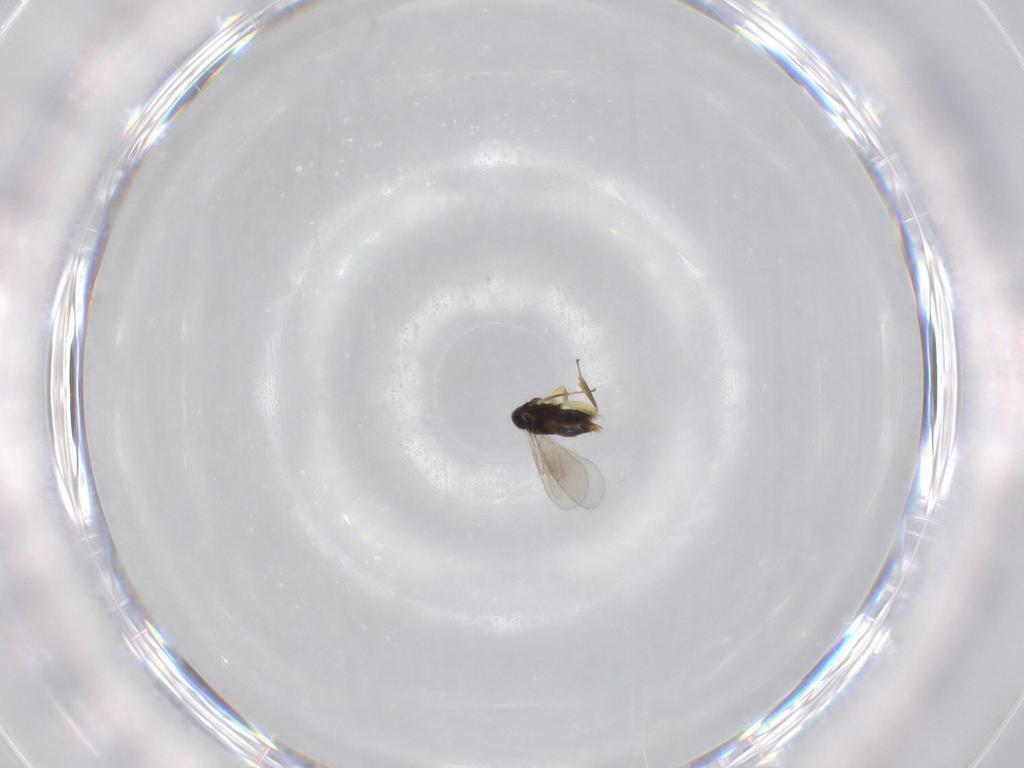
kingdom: Animalia
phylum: Arthropoda
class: Insecta
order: Hymenoptera
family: Aphelinidae
